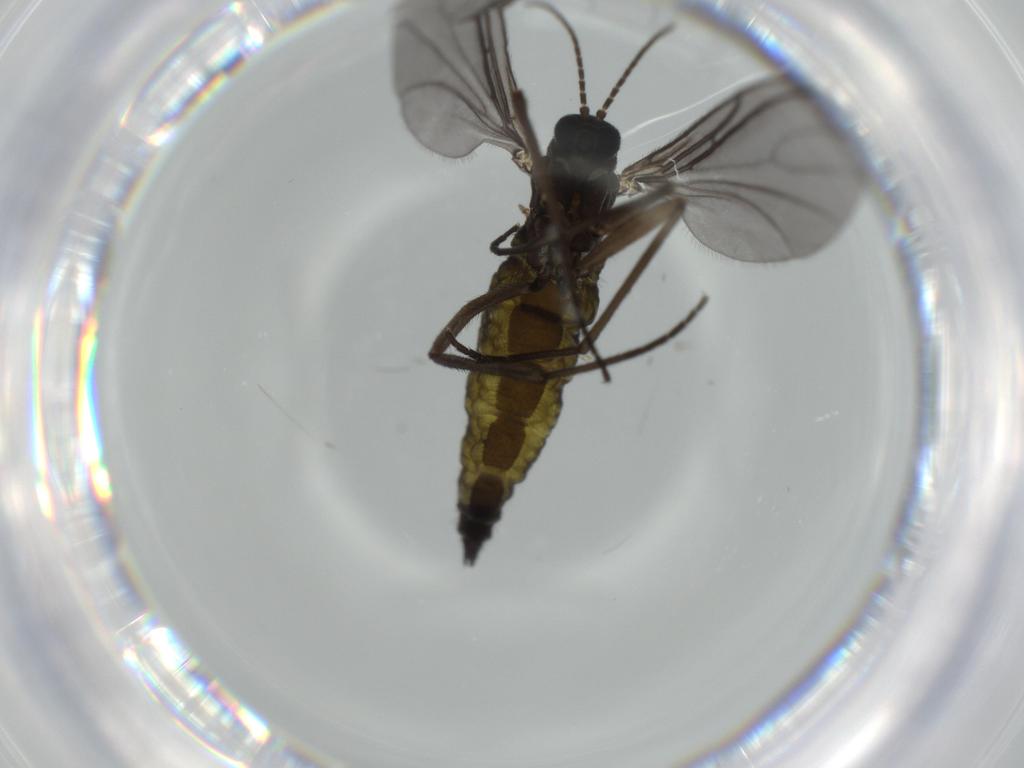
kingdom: Animalia
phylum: Arthropoda
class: Insecta
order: Diptera
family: Sciaridae
